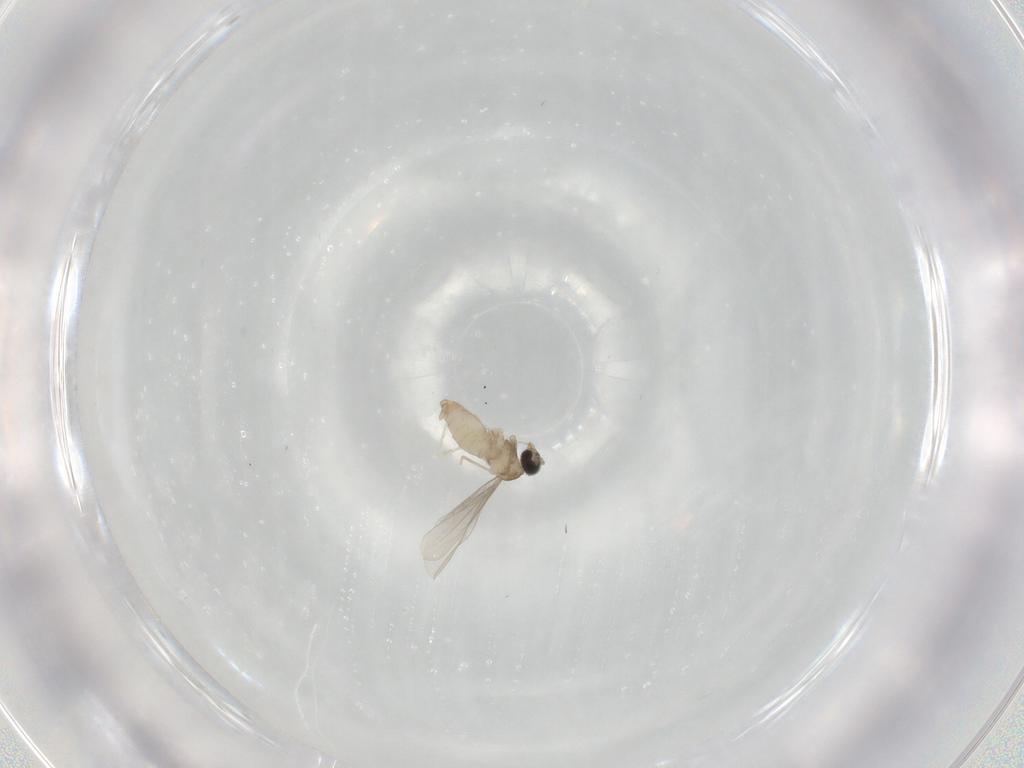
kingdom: Animalia
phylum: Arthropoda
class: Insecta
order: Diptera
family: Cecidomyiidae
